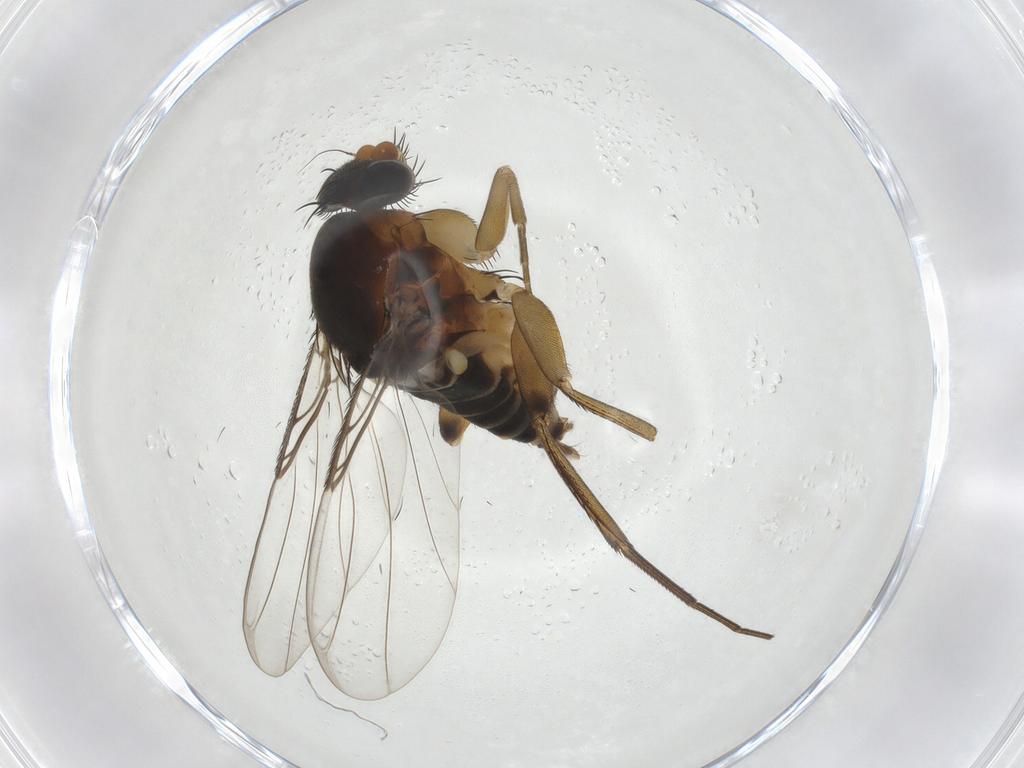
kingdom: Animalia
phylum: Arthropoda
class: Insecta
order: Diptera
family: Phoridae
